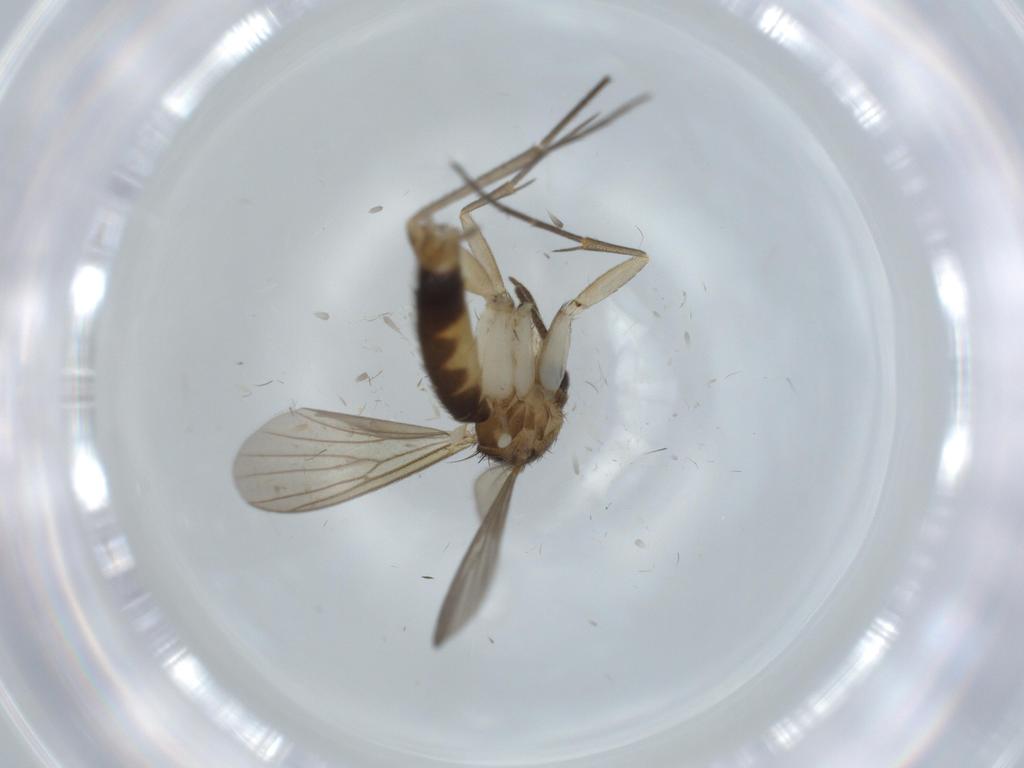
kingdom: Animalia
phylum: Arthropoda
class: Insecta
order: Diptera
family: Mycetophilidae
